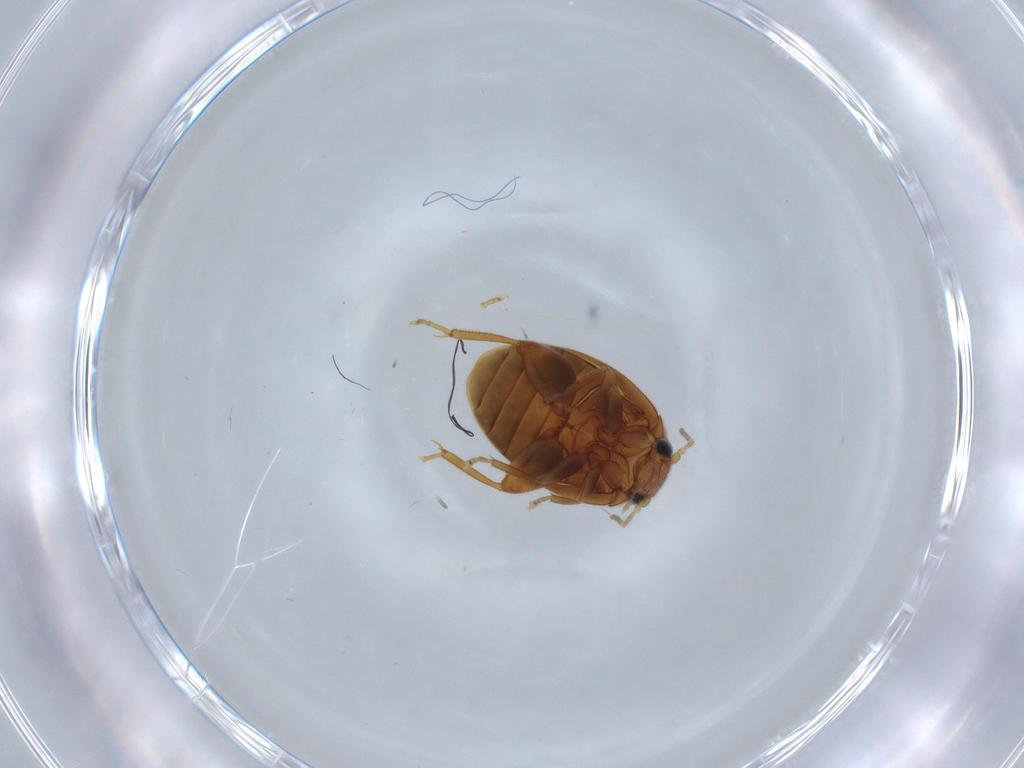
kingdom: Animalia
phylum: Arthropoda
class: Insecta
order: Coleoptera
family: Scirtidae
